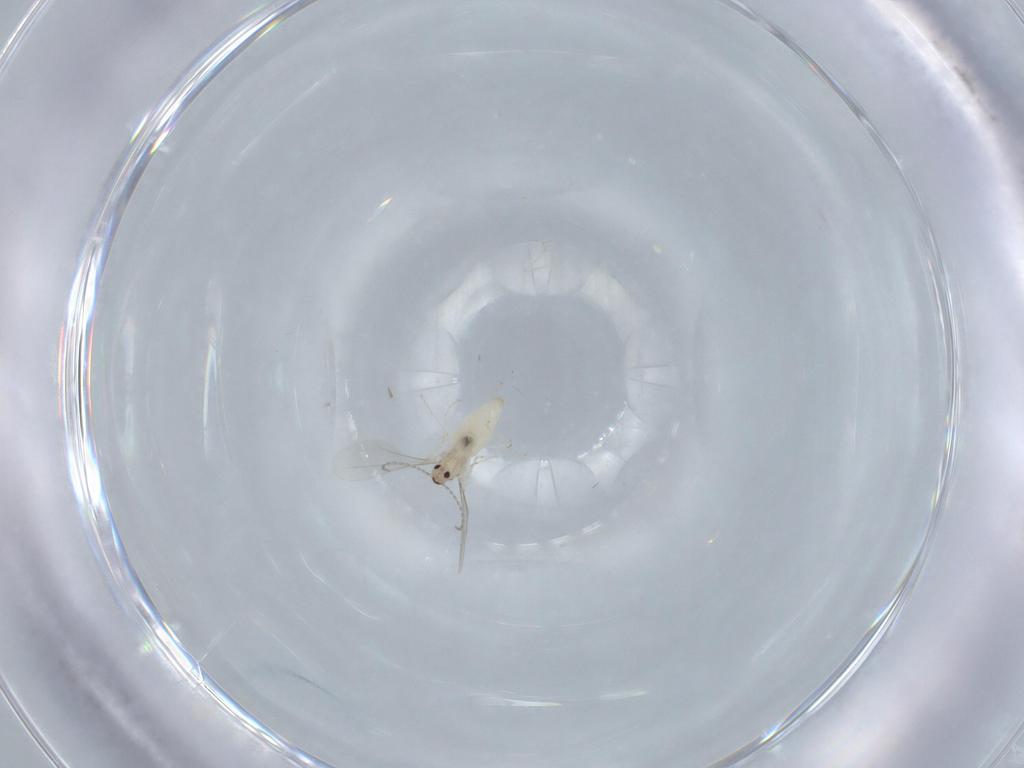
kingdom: Animalia
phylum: Arthropoda
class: Insecta
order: Diptera
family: Cecidomyiidae
